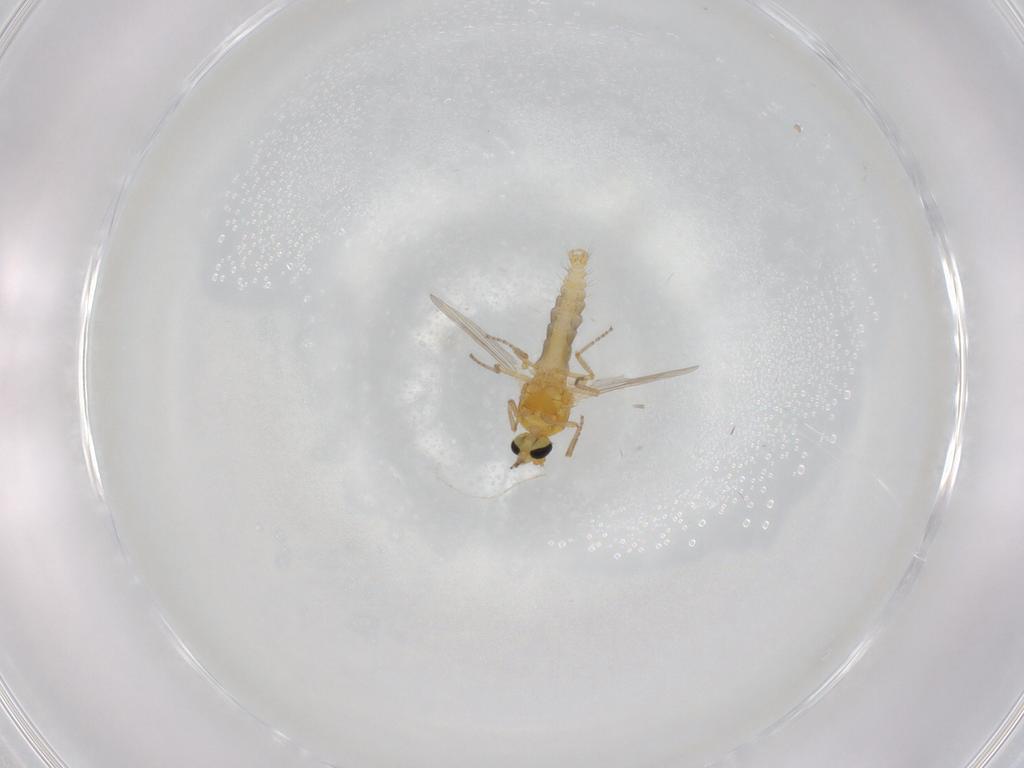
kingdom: Animalia
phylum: Arthropoda
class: Insecta
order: Diptera
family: Ceratopogonidae
